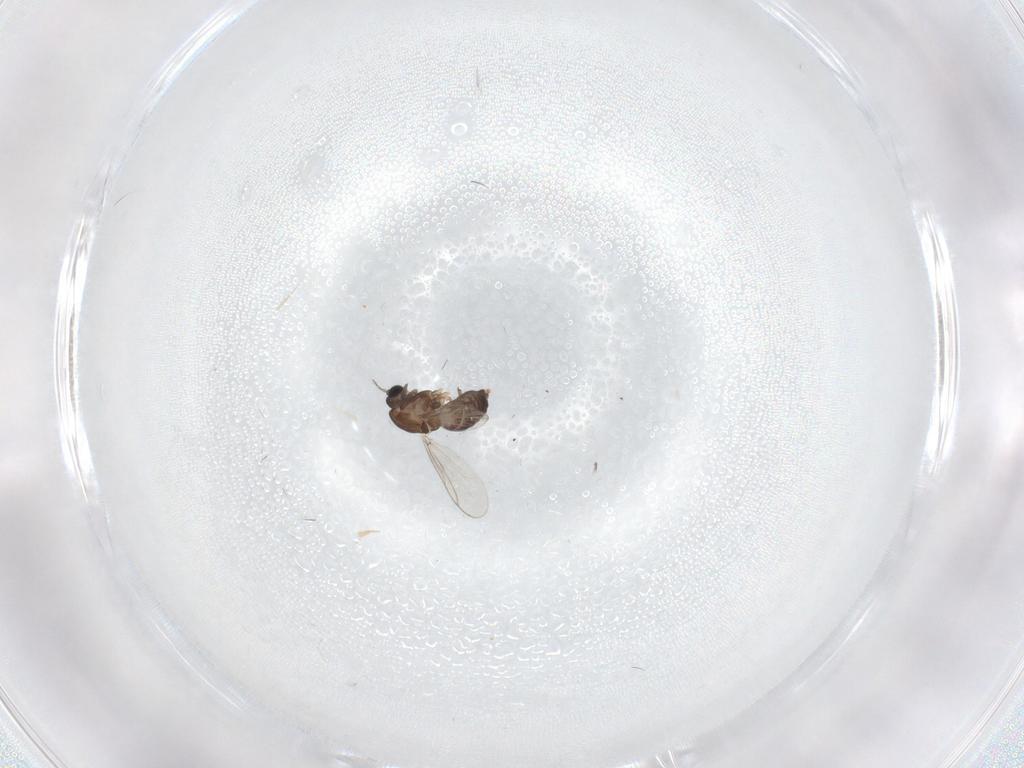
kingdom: Animalia
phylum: Arthropoda
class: Insecta
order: Diptera
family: Chironomidae
